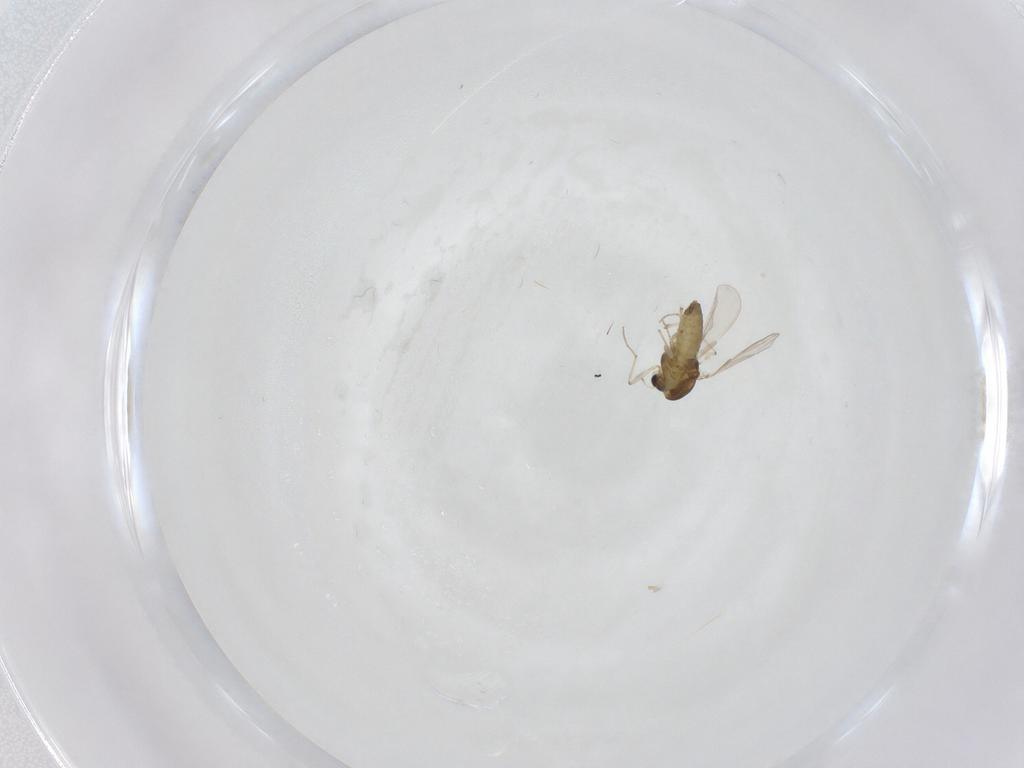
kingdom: Animalia
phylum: Arthropoda
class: Insecta
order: Diptera
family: Chironomidae
